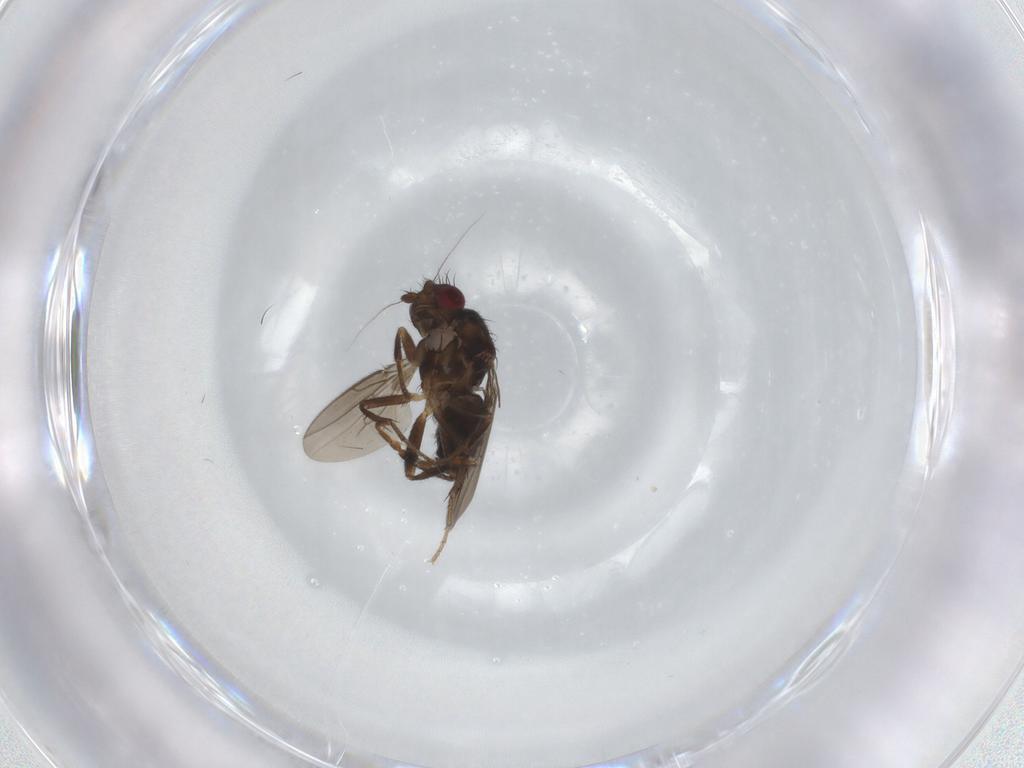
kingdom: Animalia
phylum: Arthropoda
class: Insecta
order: Diptera
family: Sphaeroceridae
